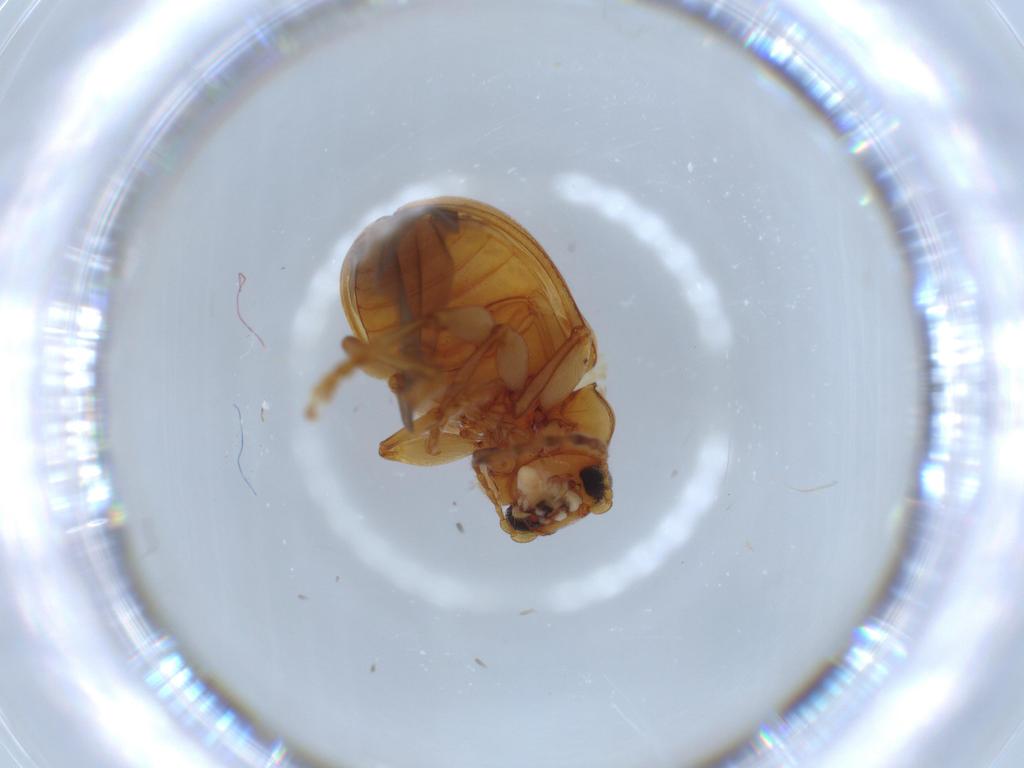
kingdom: Animalia
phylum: Arthropoda
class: Insecta
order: Coleoptera
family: Chrysomelidae
